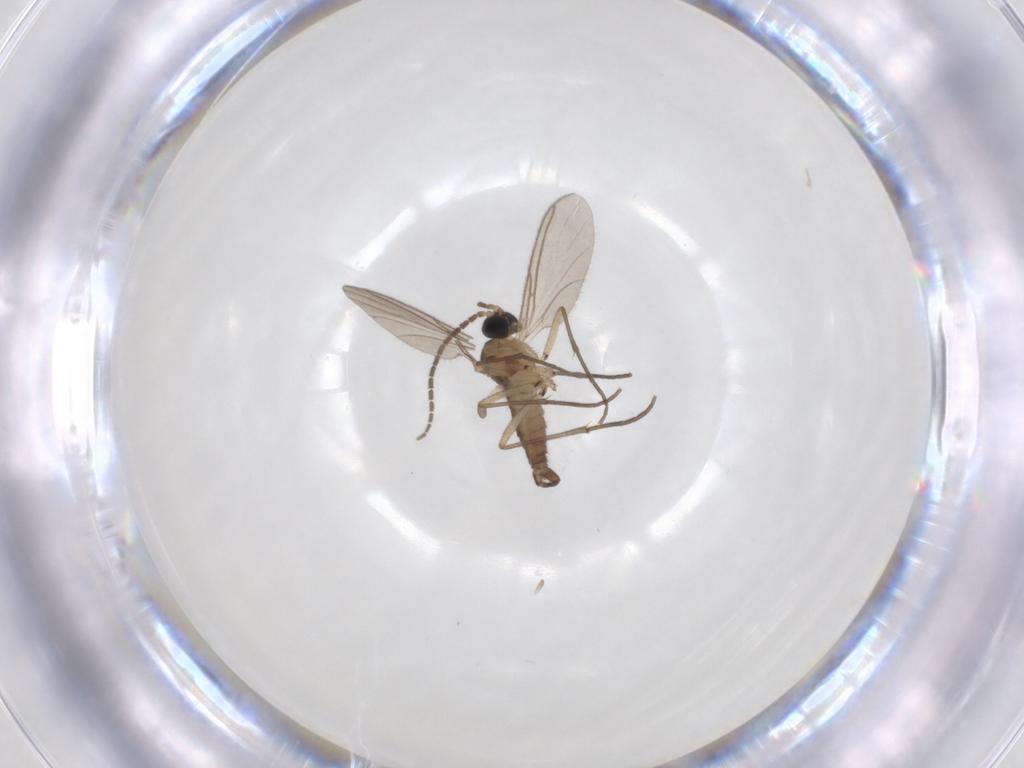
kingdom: Animalia
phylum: Arthropoda
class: Insecta
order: Diptera
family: Sciaridae
